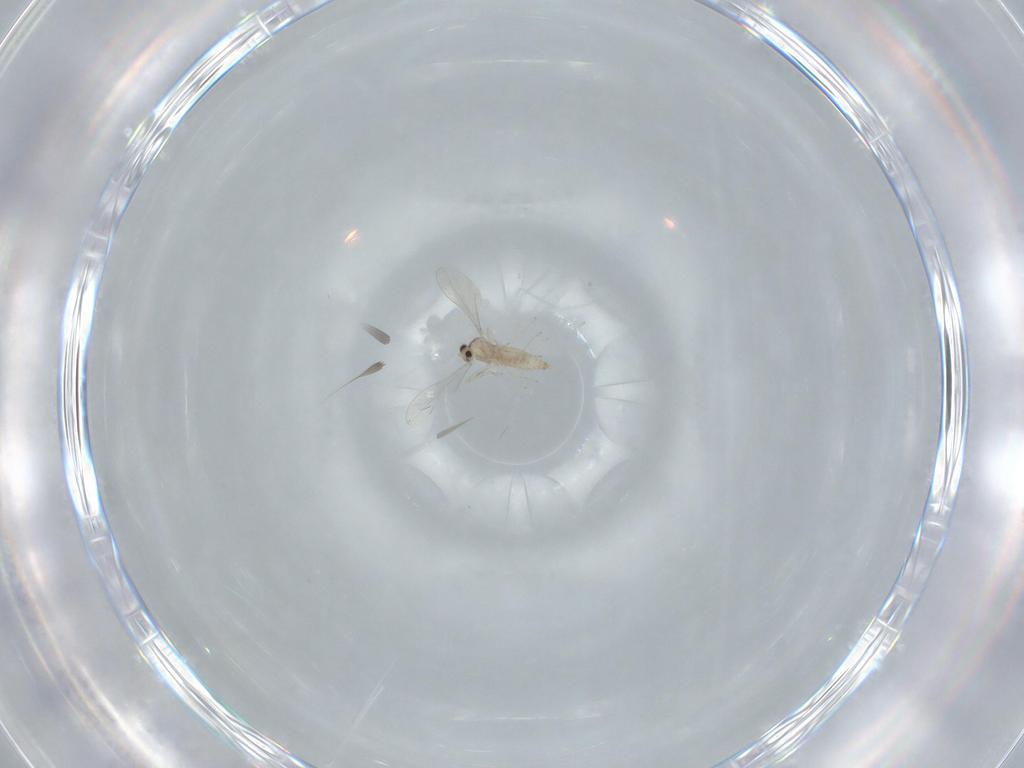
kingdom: Animalia
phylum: Arthropoda
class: Insecta
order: Diptera
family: Cecidomyiidae
